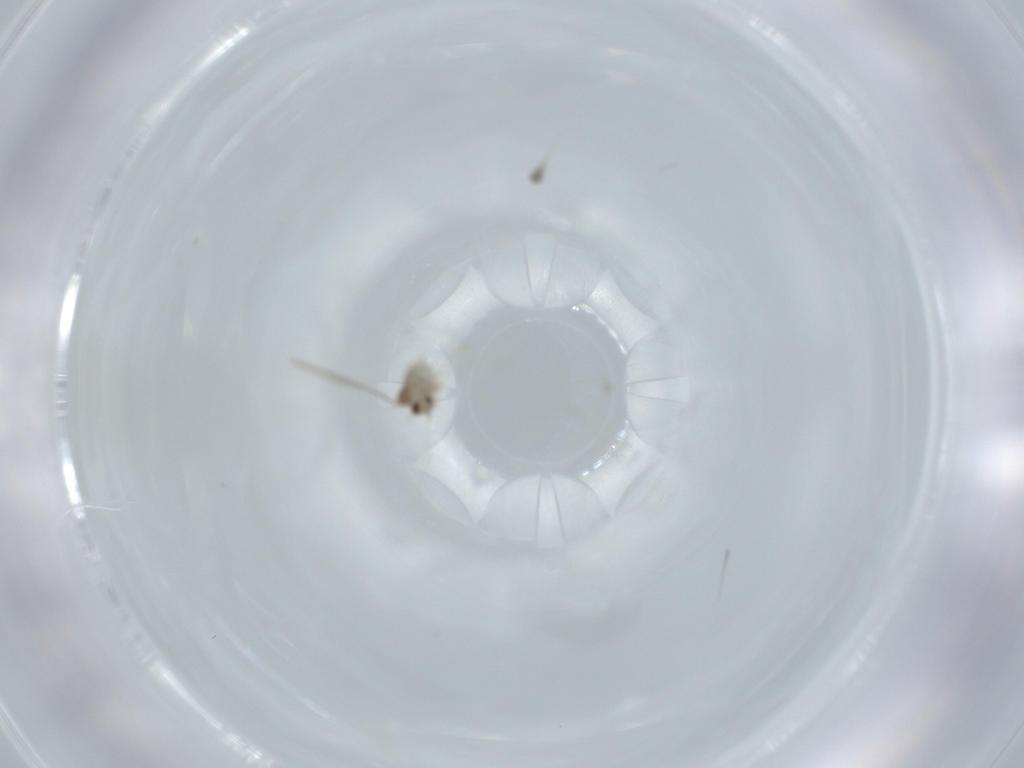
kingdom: Animalia
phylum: Arthropoda
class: Insecta
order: Diptera
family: Cecidomyiidae
